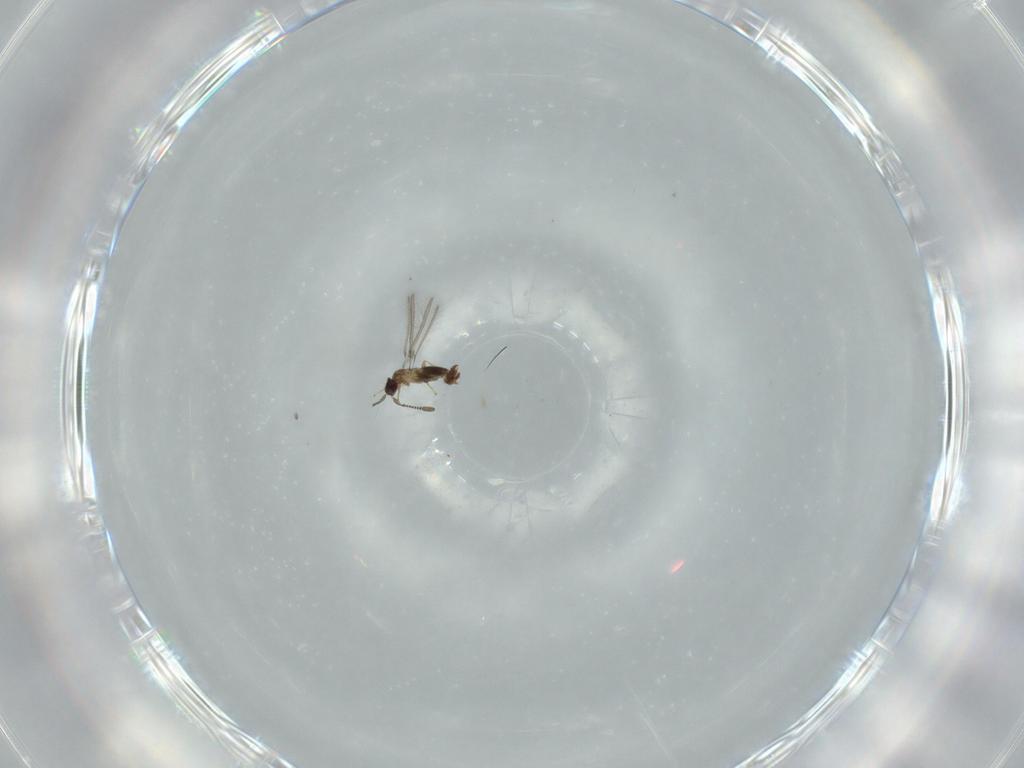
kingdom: Animalia
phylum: Arthropoda
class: Insecta
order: Hymenoptera
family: Mymaridae
